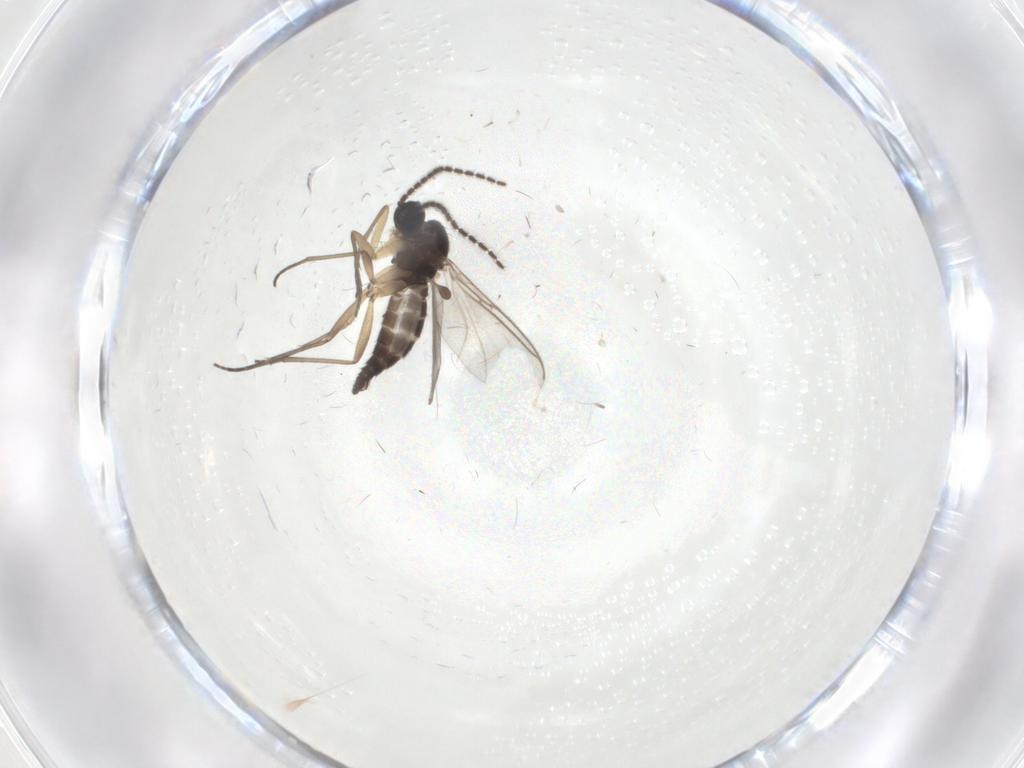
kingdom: Animalia
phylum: Arthropoda
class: Insecta
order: Diptera
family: Sciaridae
